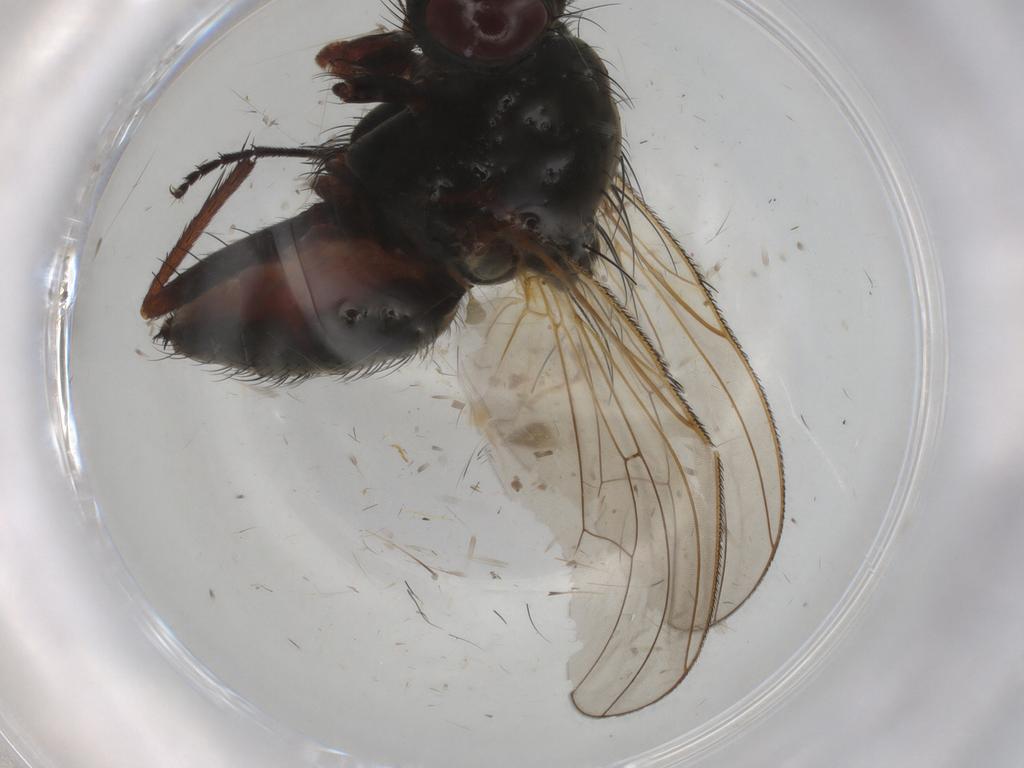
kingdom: Animalia
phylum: Arthropoda
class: Insecta
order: Diptera
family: Anthomyiidae
